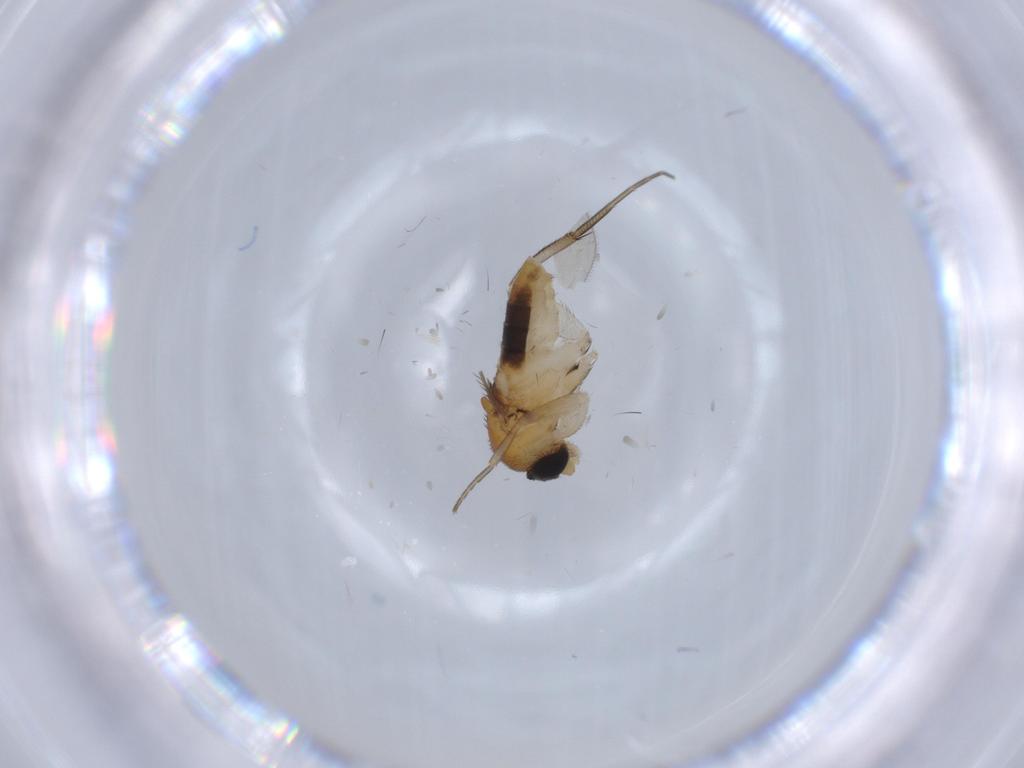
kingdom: Animalia
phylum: Arthropoda
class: Insecta
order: Diptera
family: Phoridae
